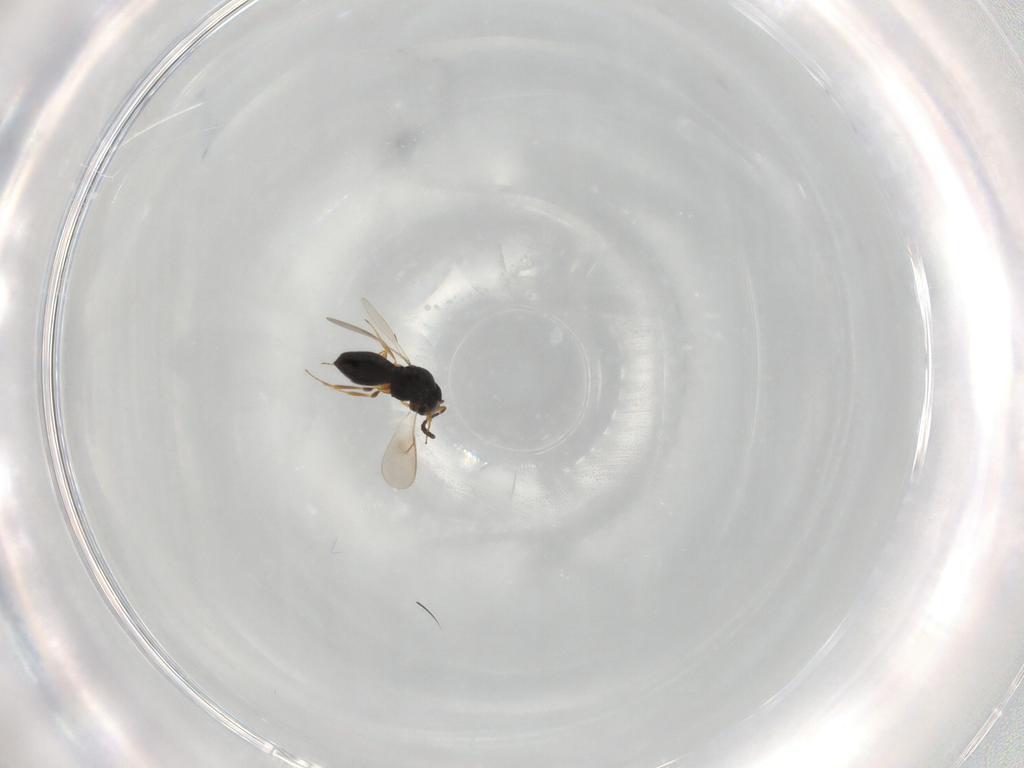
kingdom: Animalia
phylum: Arthropoda
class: Insecta
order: Hymenoptera
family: Scelionidae
